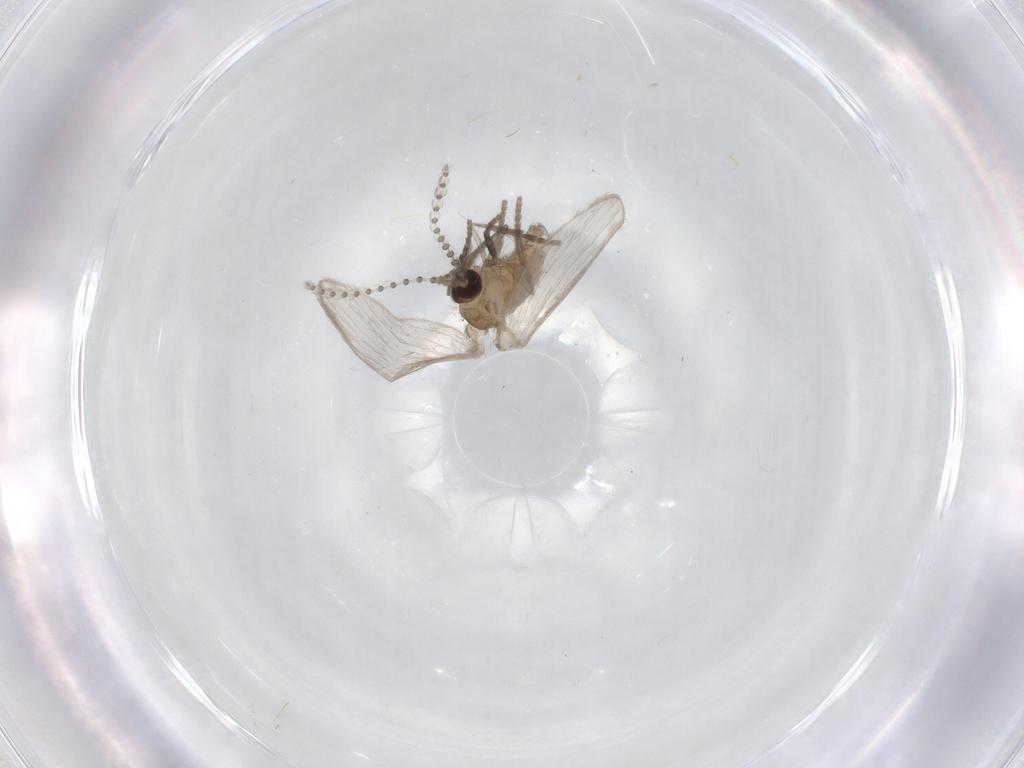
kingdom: Animalia
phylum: Arthropoda
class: Insecta
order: Diptera
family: Psychodidae
